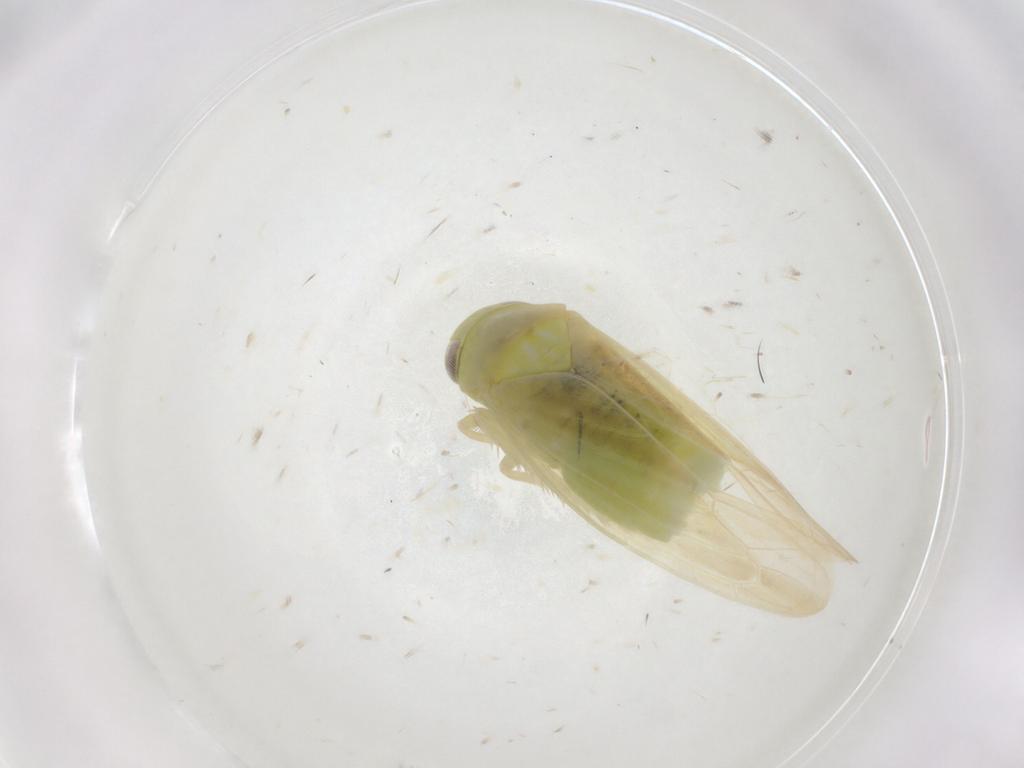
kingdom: Animalia
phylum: Arthropoda
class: Insecta
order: Hemiptera
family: Cicadellidae
